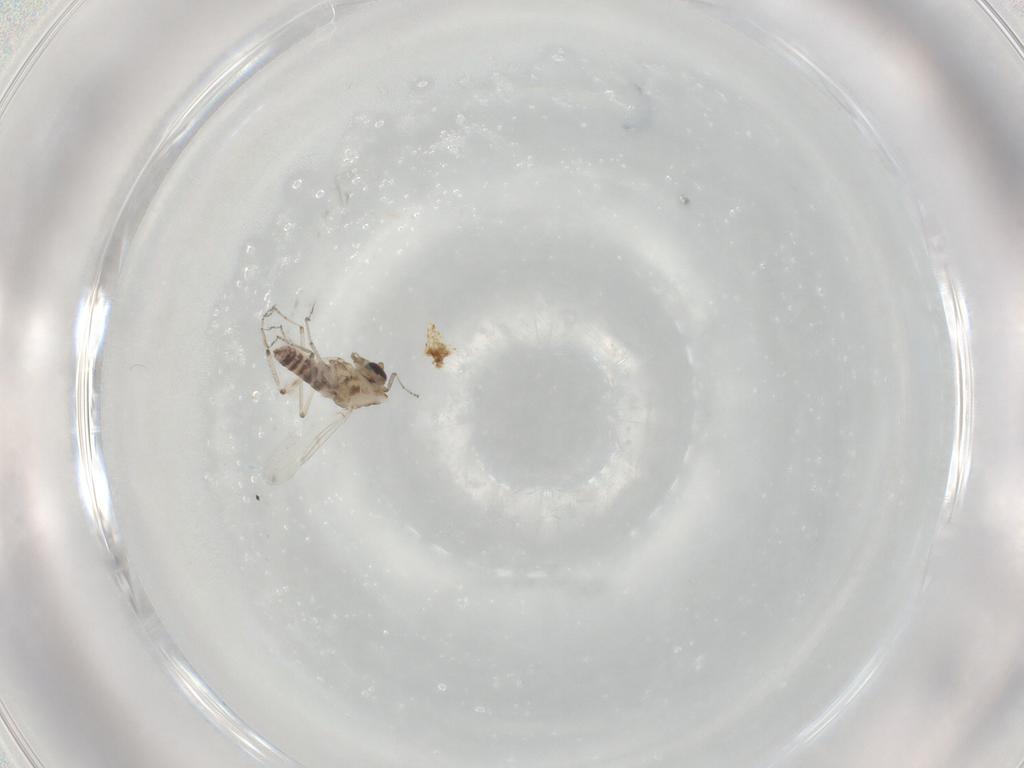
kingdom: Animalia
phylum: Arthropoda
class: Insecta
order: Diptera
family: Ceratopogonidae
